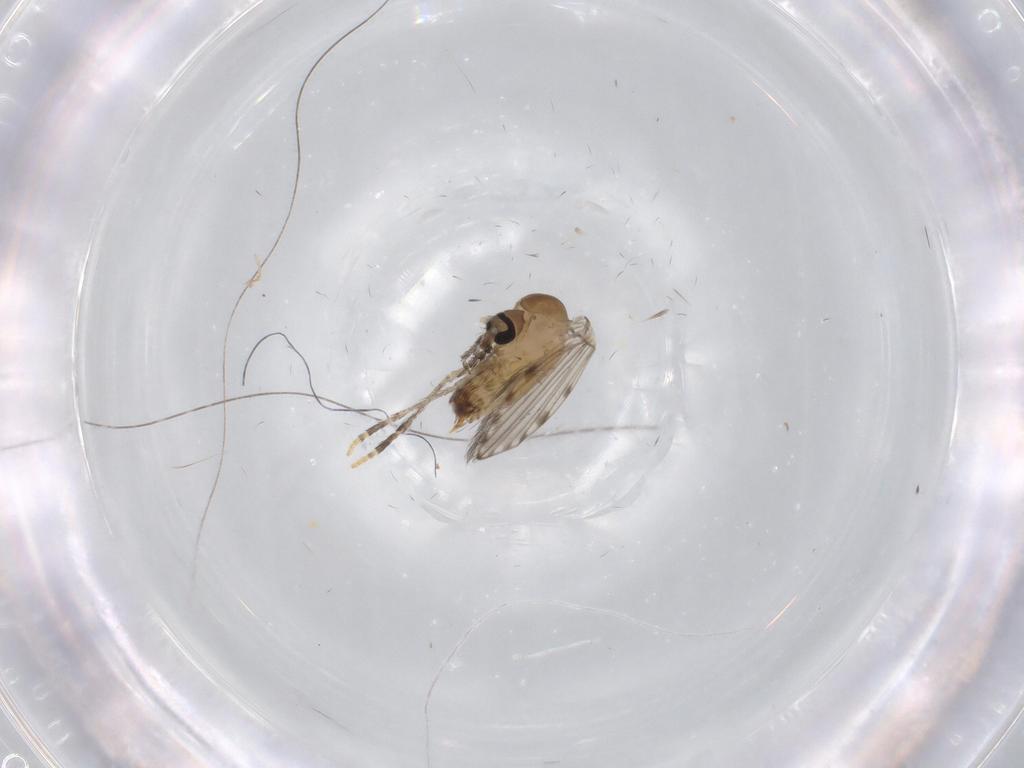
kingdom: Animalia
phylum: Arthropoda
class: Insecta
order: Diptera
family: Psychodidae
